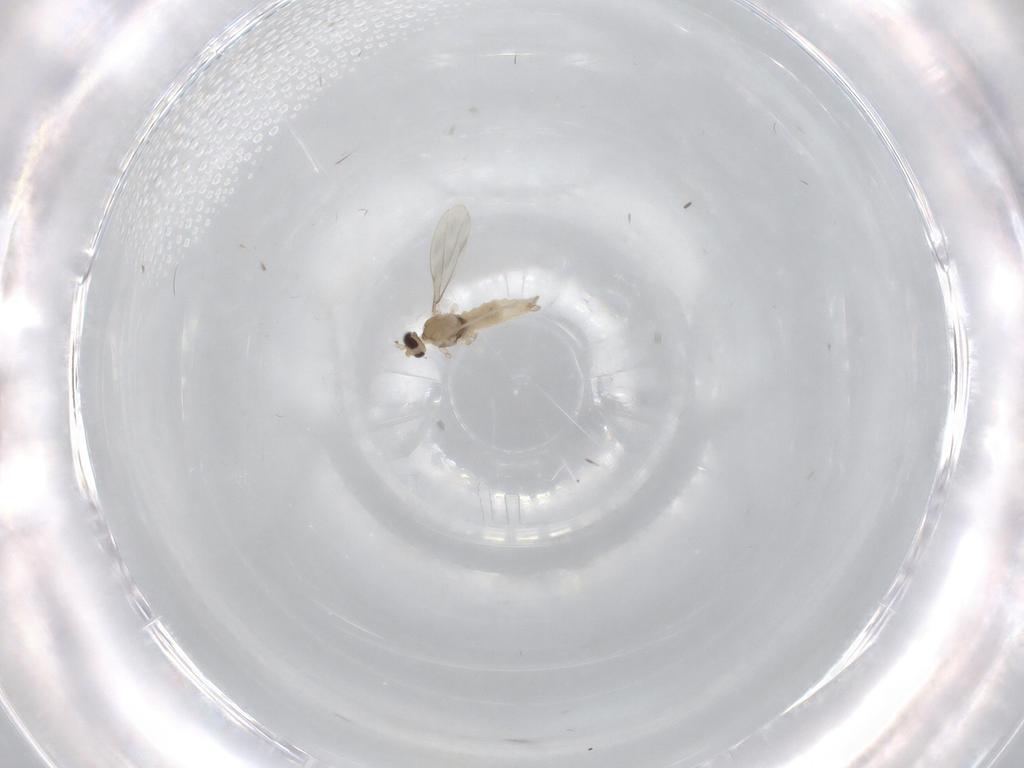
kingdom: Animalia
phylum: Arthropoda
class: Insecta
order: Diptera
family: Cecidomyiidae
